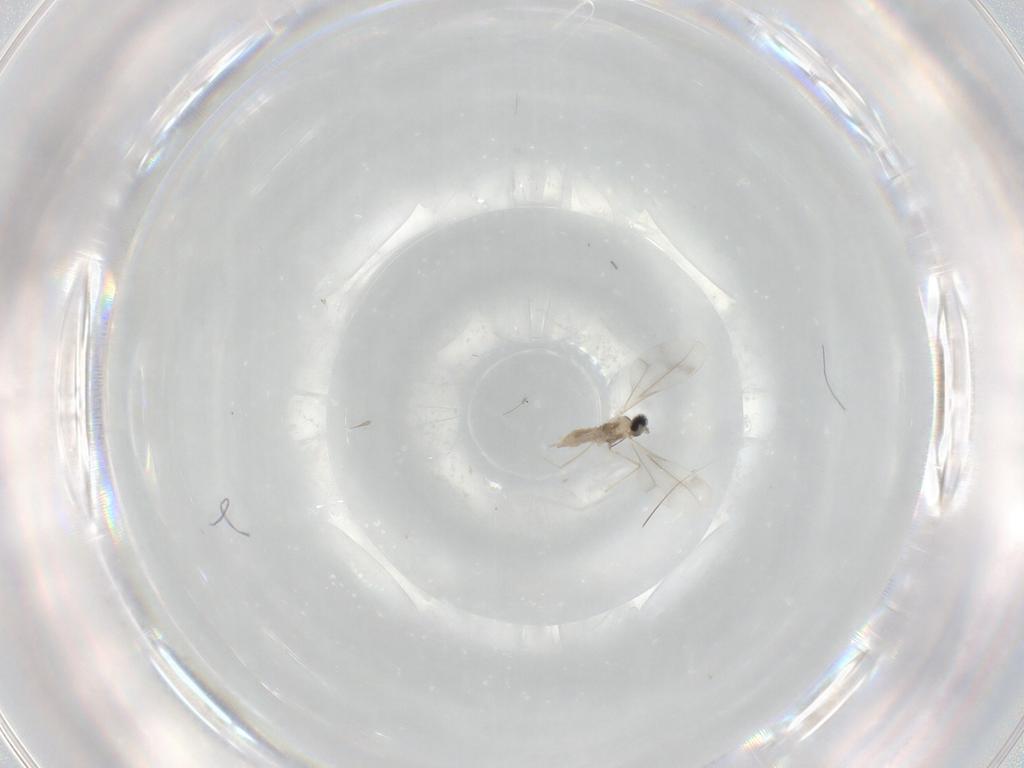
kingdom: Animalia
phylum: Arthropoda
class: Insecta
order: Diptera
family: Cecidomyiidae
